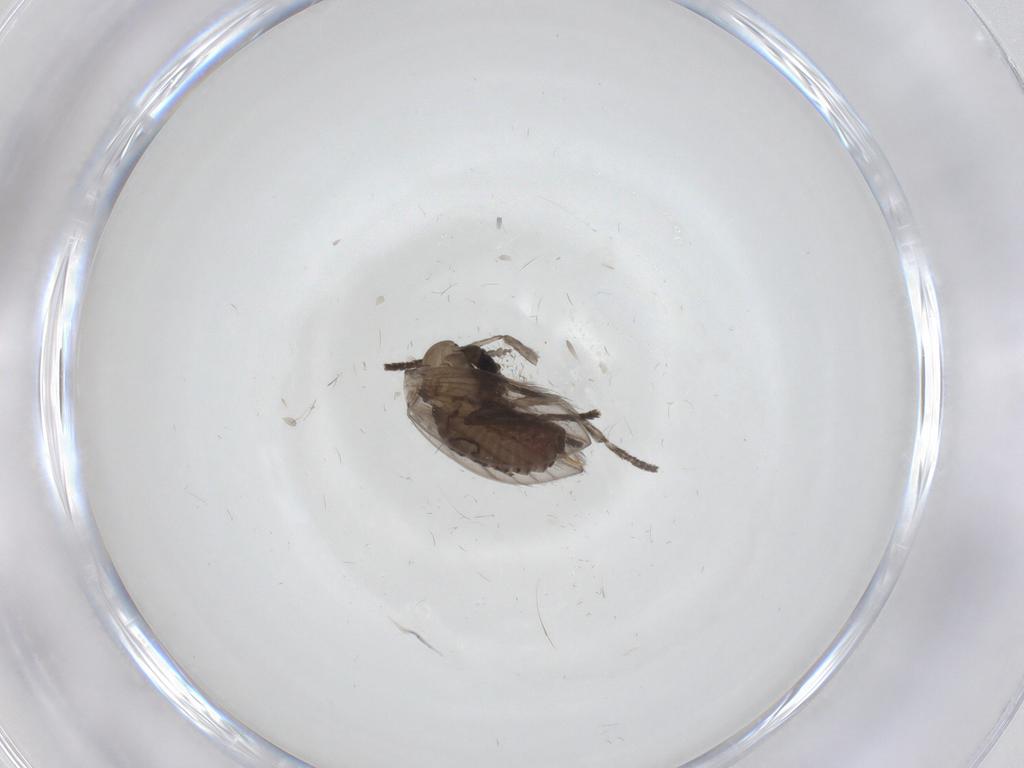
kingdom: Animalia
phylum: Arthropoda
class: Insecta
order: Diptera
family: Psychodidae
